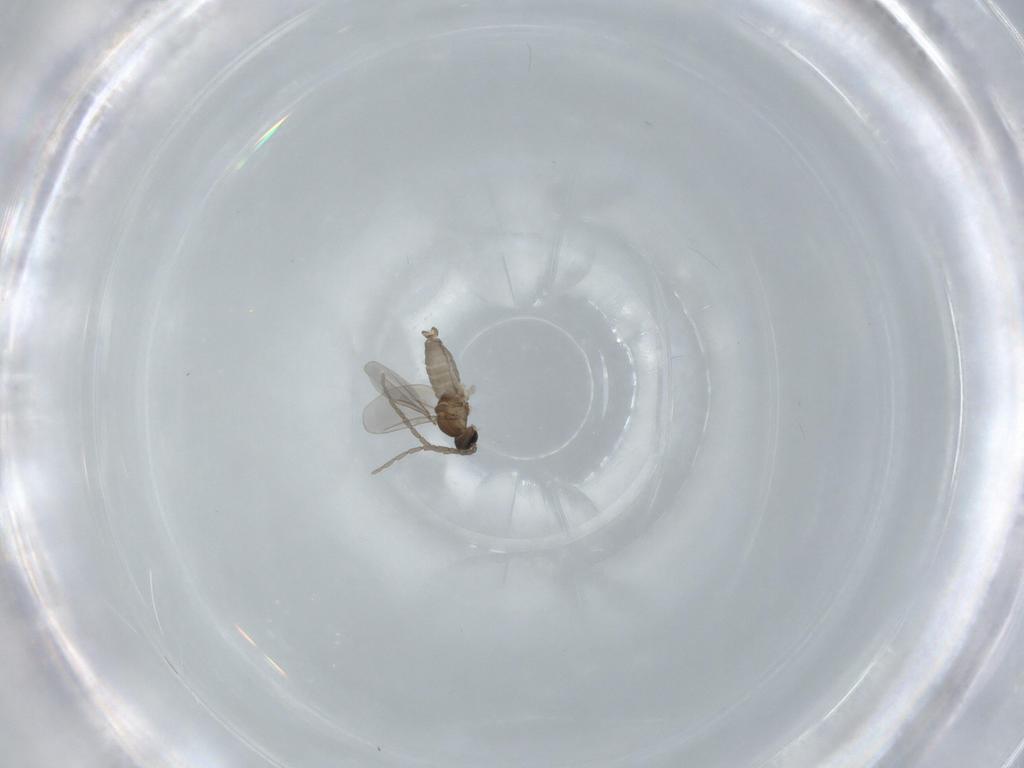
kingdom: Animalia
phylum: Arthropoda
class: Insecta
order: Diptera
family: Cecidomyiidae
